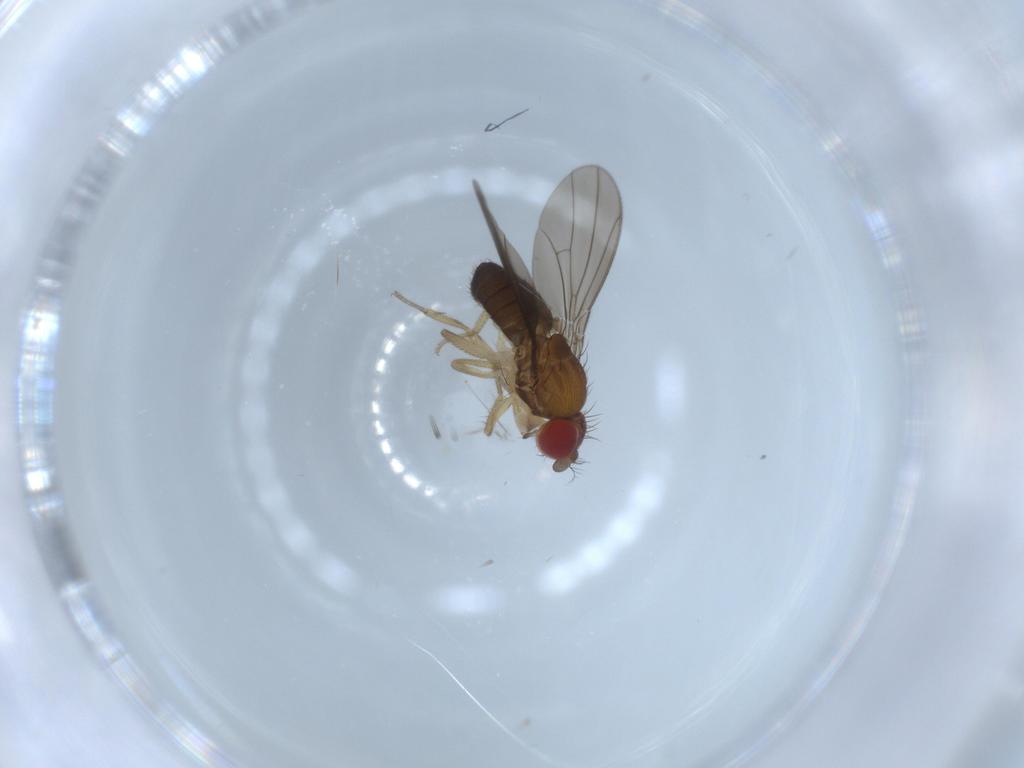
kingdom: Animalia
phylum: Arthropoda
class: Insecta
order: Diptera
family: Drosophilidae
